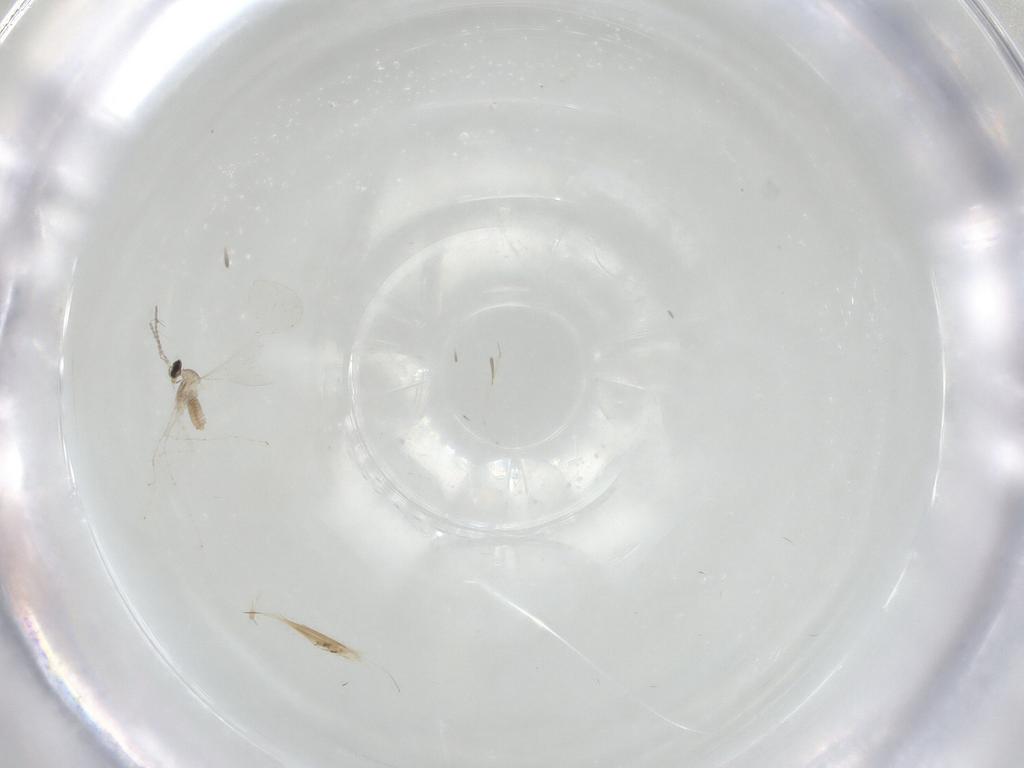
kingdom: Animalia
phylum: Arthropoda
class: Insecta
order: Diptera
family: Cecidomyiidae
